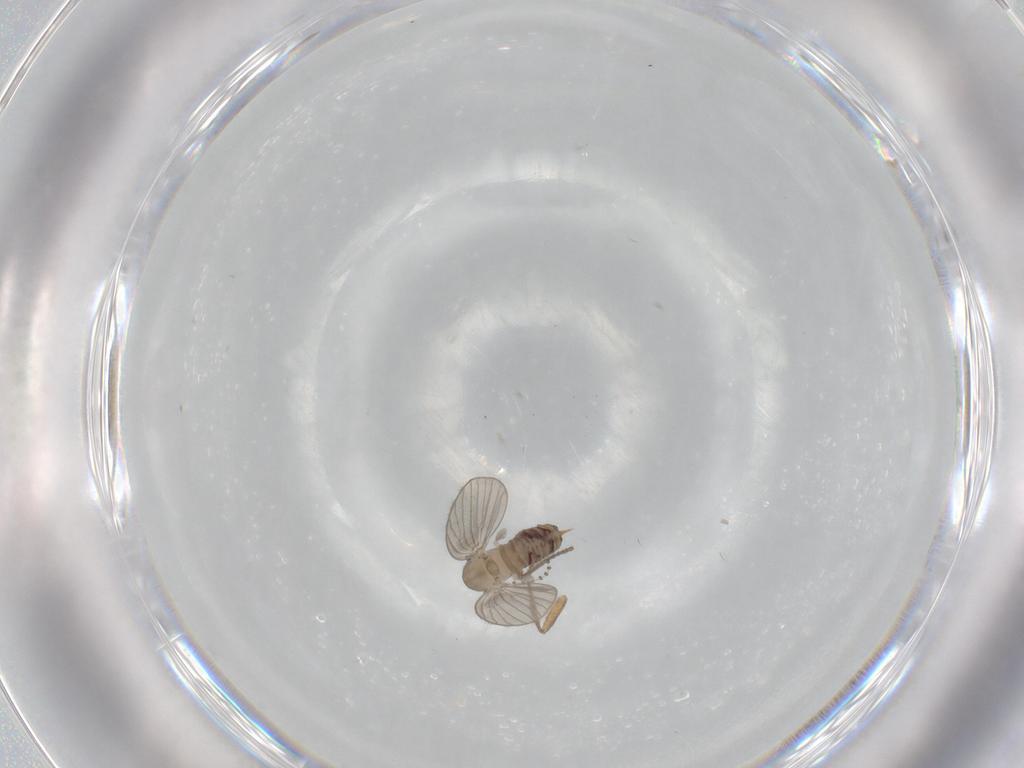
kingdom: Animalia
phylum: Arthropoda
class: Insecta
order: Diptera
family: Psychodidae
